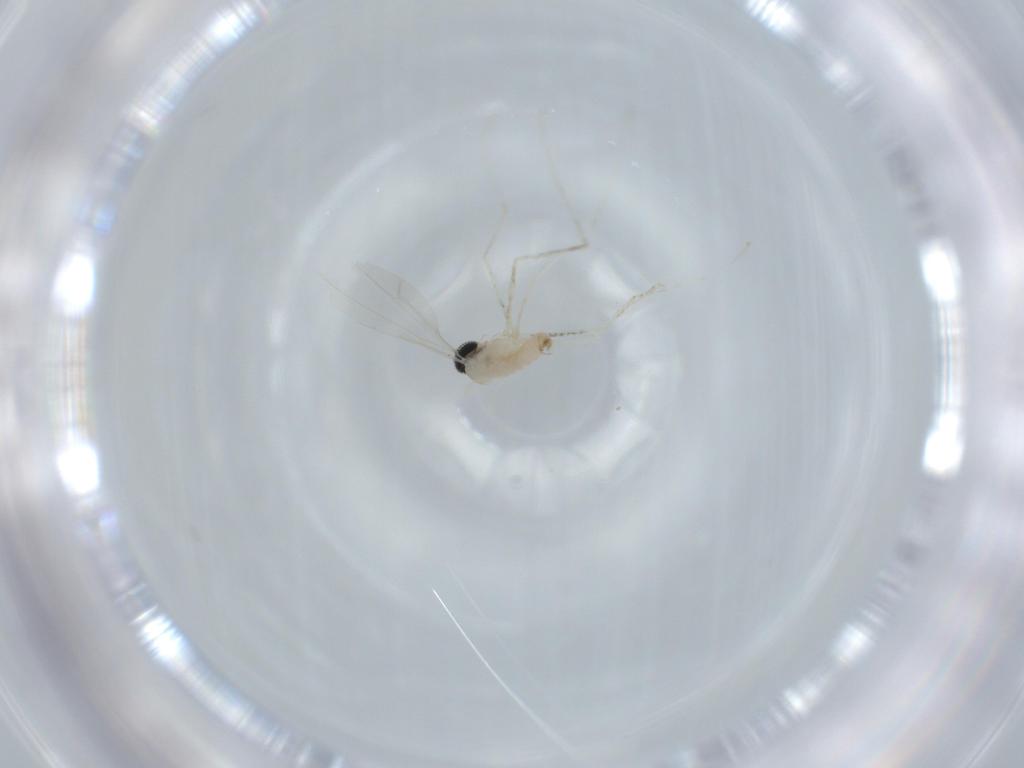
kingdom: Animalia
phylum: Arthropoda
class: Insecta
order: Diptera
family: Cecidomyiidae
